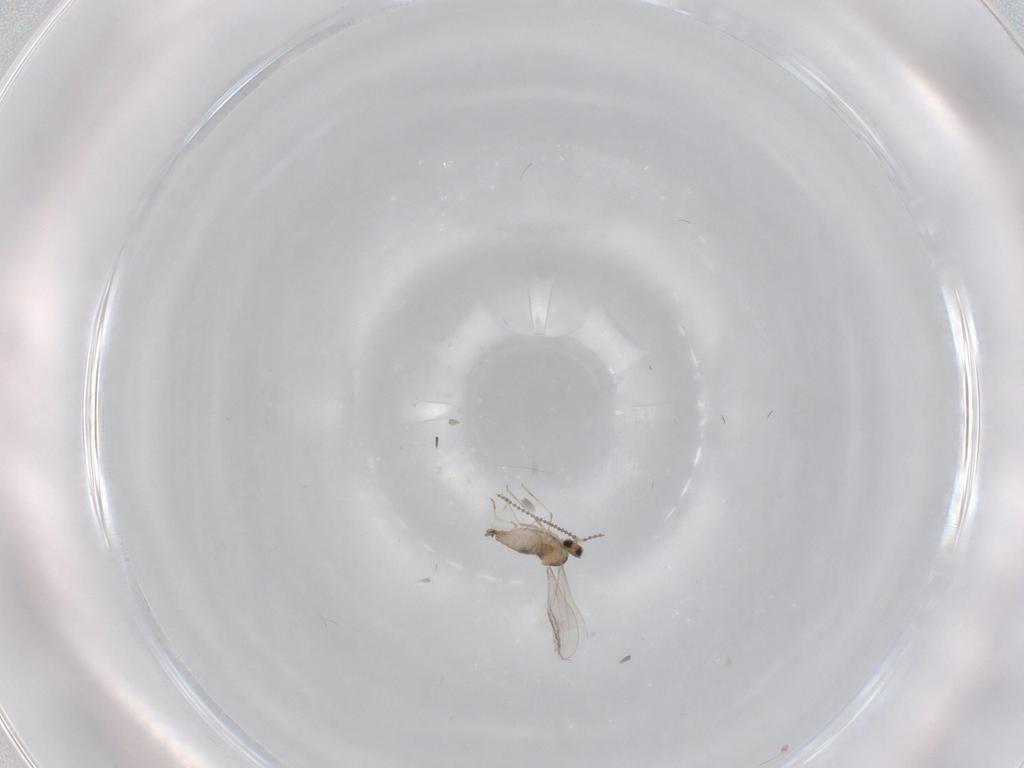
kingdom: Animalia
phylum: Arthropoda
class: Insecta
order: Diptera
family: Cecidomyiidae
